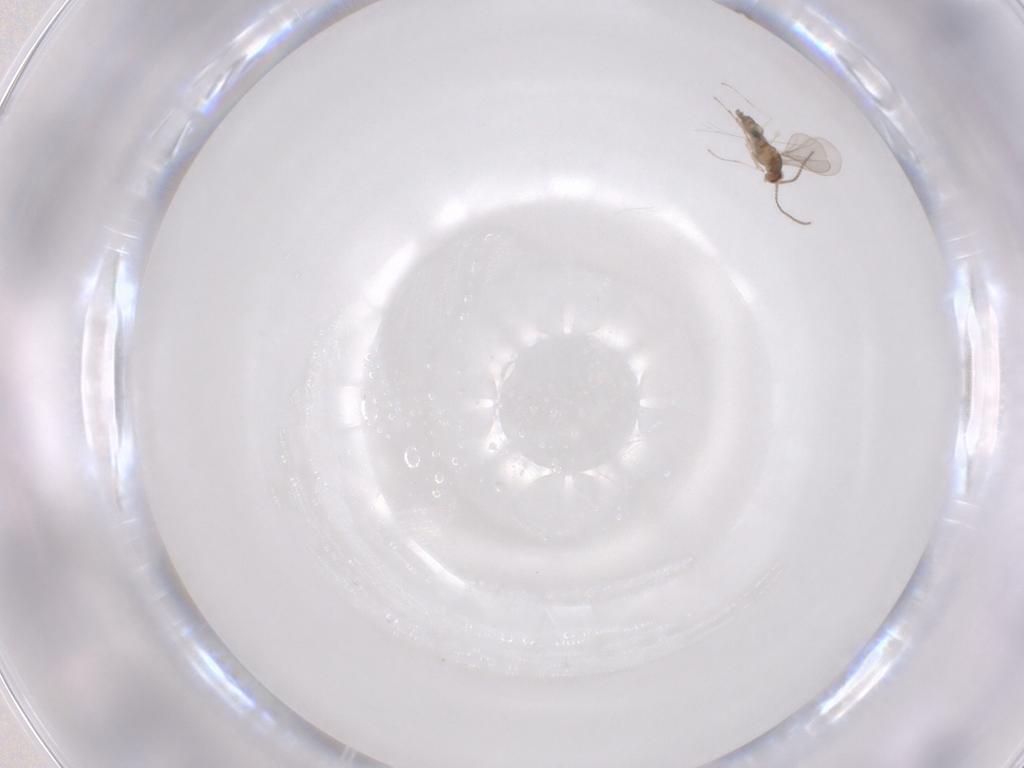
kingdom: Animalia
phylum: Arthropoda
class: Insecta
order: Diptera
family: Cecidomyiidae
